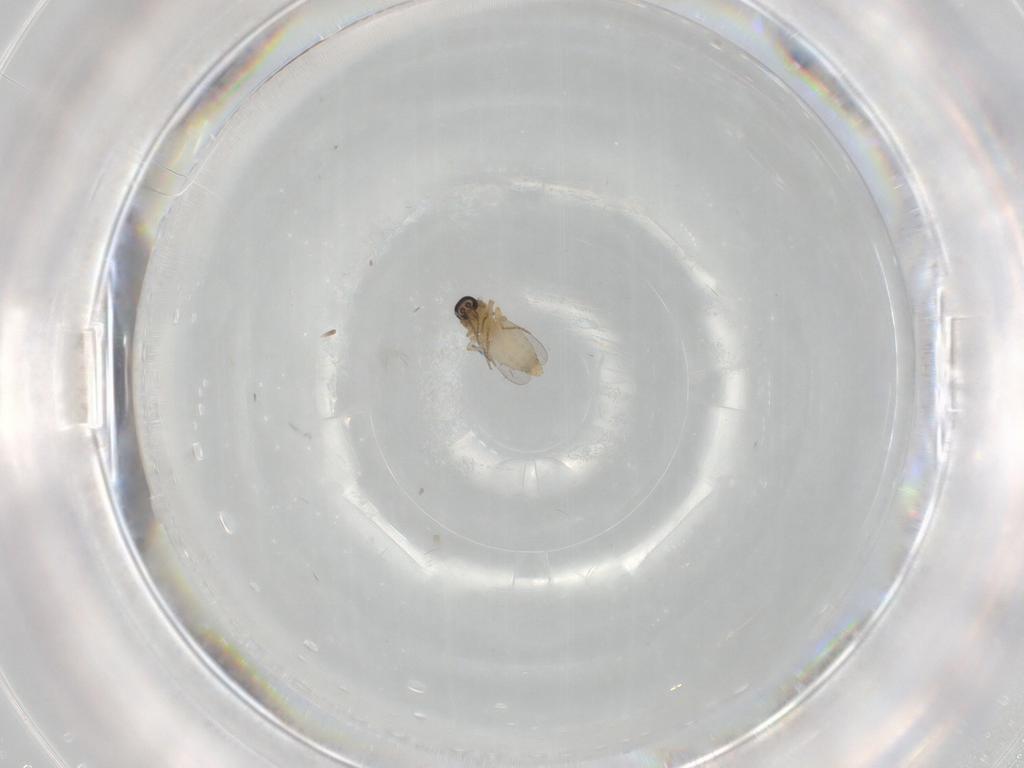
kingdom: Animalia
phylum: Arthropoda
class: Insecta
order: Diptera
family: Ceratopogonidae
